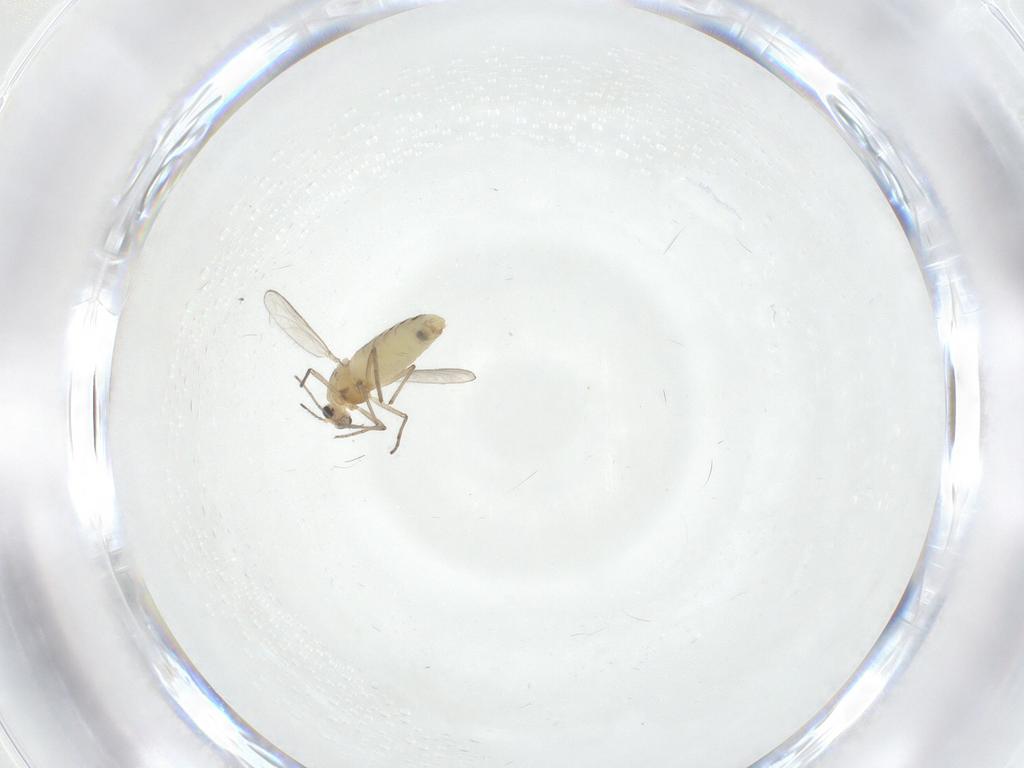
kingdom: Animalia
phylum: Arthropoda
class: Insecta
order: Diptera
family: Chironomidae
